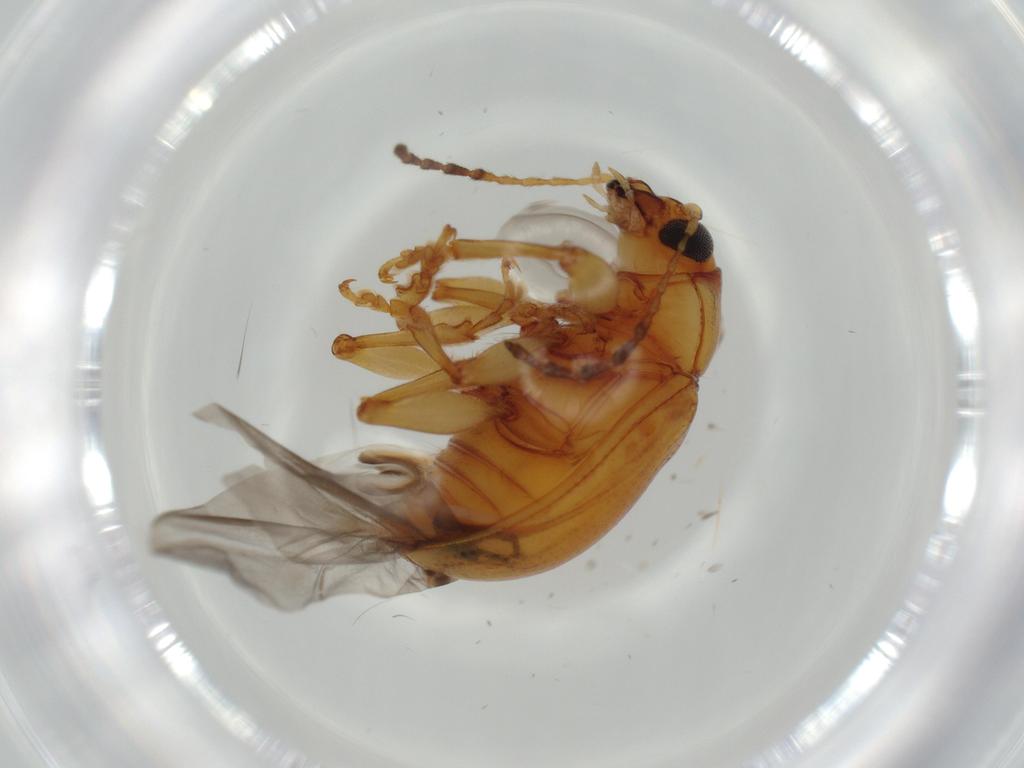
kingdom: Animalia
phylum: Arthropoda
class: Insecta
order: Coleoptera
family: Chrysomelidae
